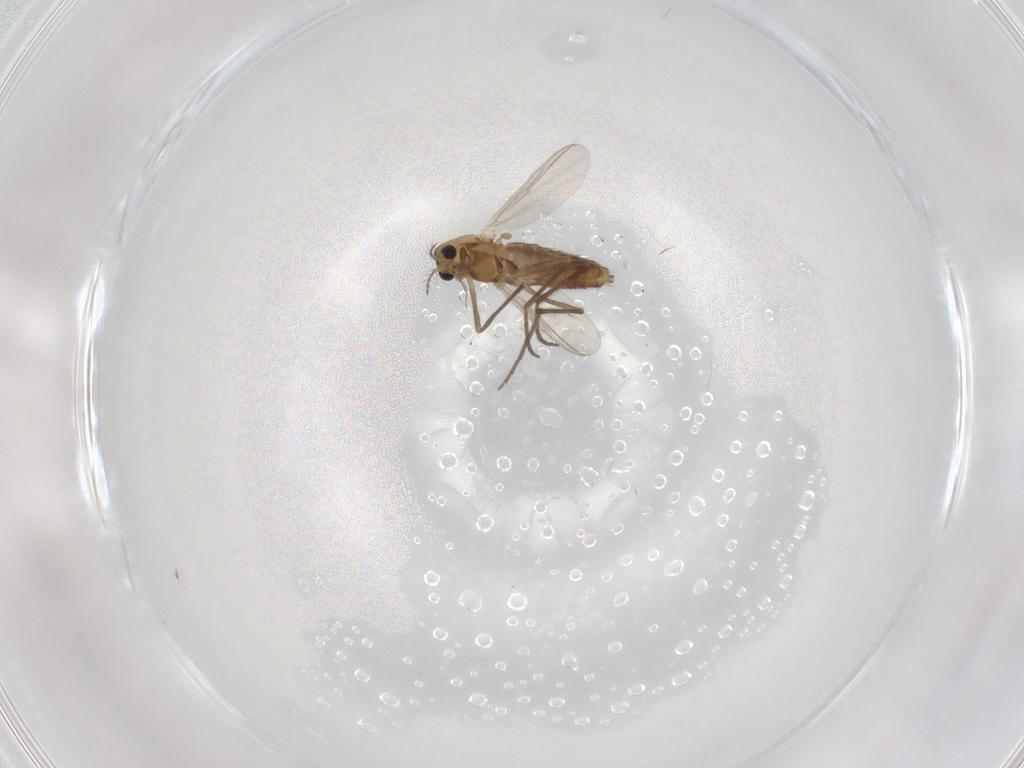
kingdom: Animalia
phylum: Arthropoda
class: Insecta
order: Diptera
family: Chironomidae
